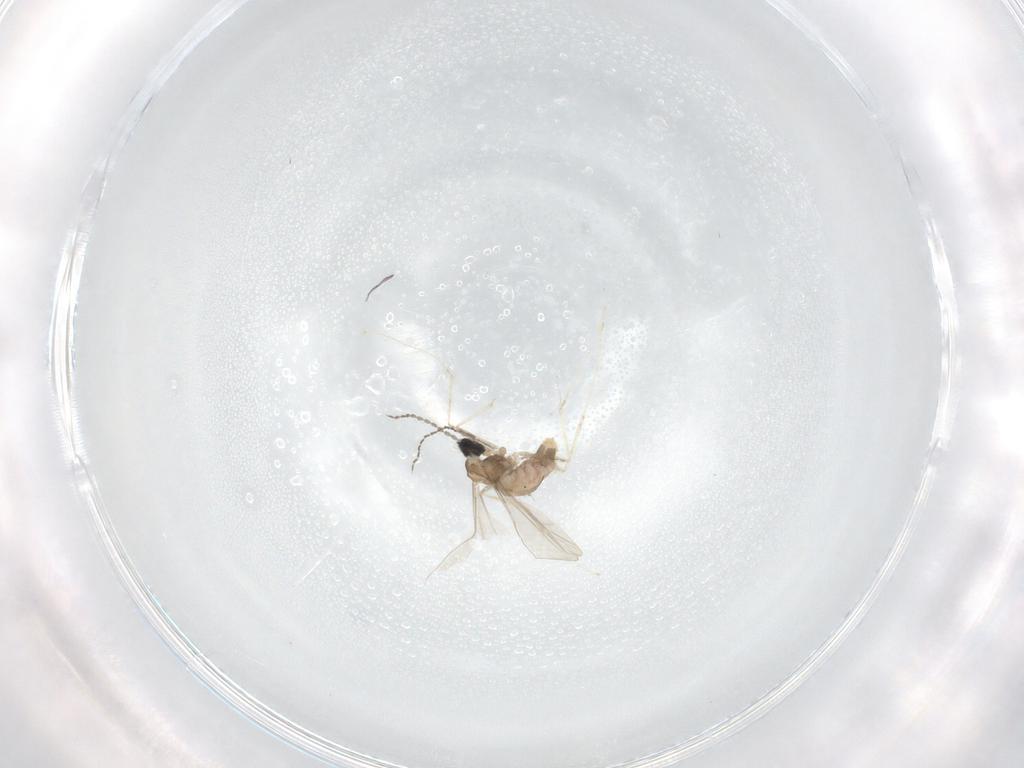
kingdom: Animalia
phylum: Arthropoda
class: Insecta
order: Diptera
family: Cecidomyiidae
